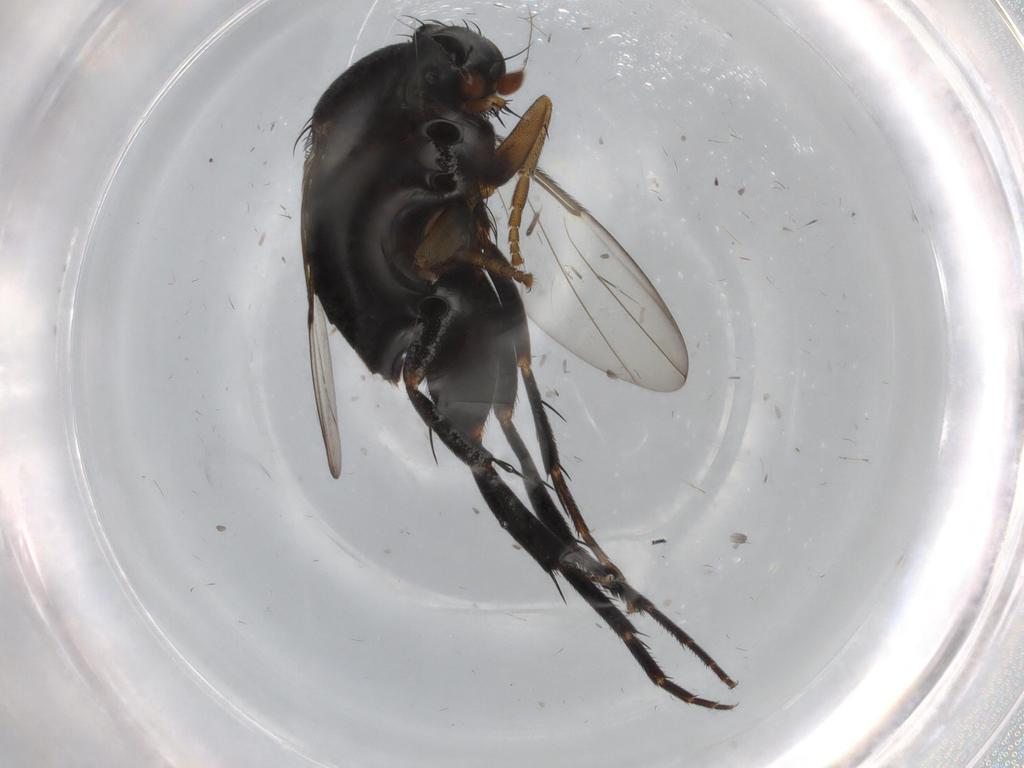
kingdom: Animalia
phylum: Arthropoda
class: Insecta
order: Diptera
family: Phoridae
